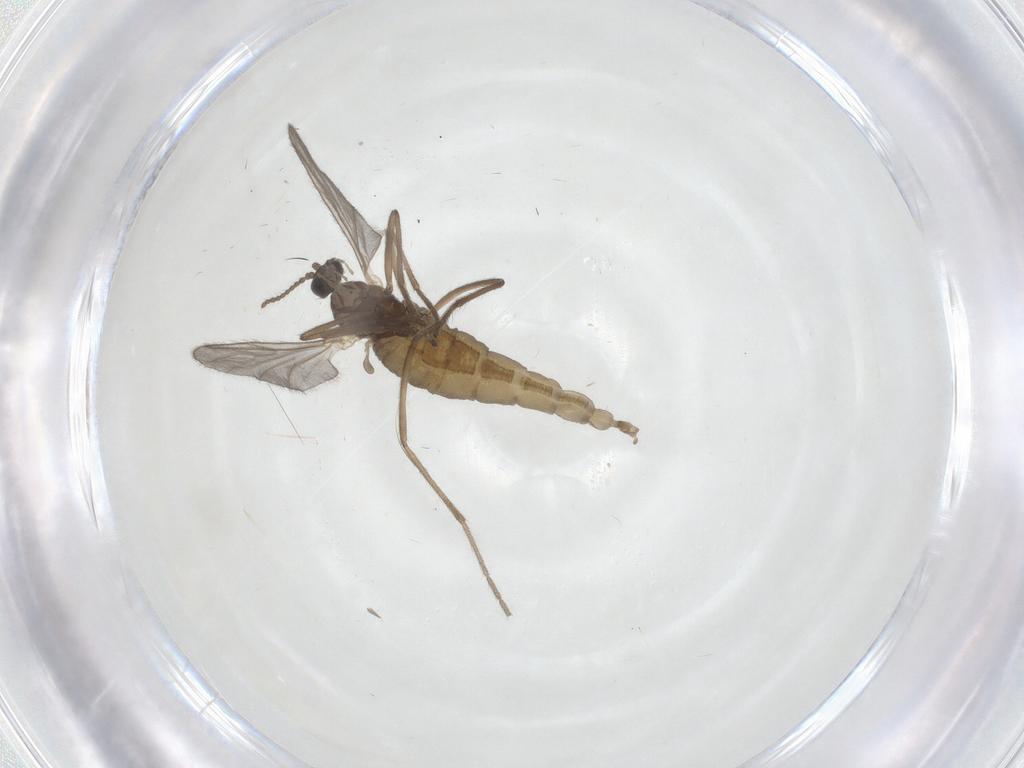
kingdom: Animalia
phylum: Arthropoda
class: Insecta
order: Diptera
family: Cecidomyiidae
